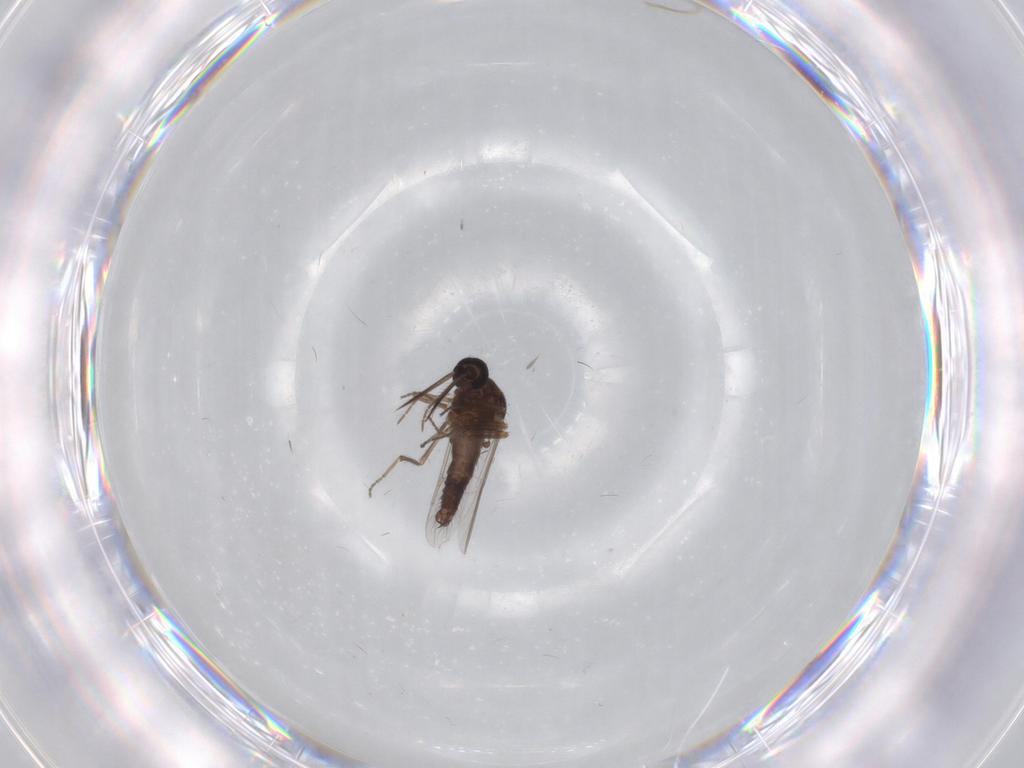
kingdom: Animalia
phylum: Arthropoda
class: Insecta
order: Diptera
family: Ceratopogonidae
